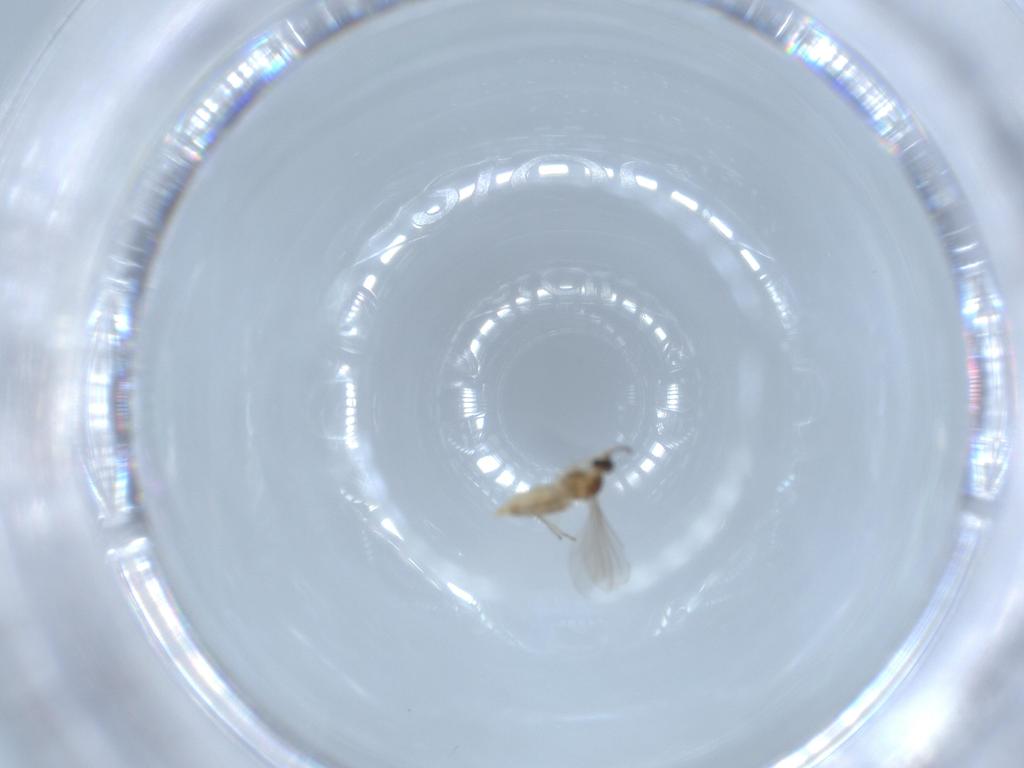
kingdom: Animalia
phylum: Arthropoda
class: Insecta
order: Diptera
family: Cecidomyiidae
